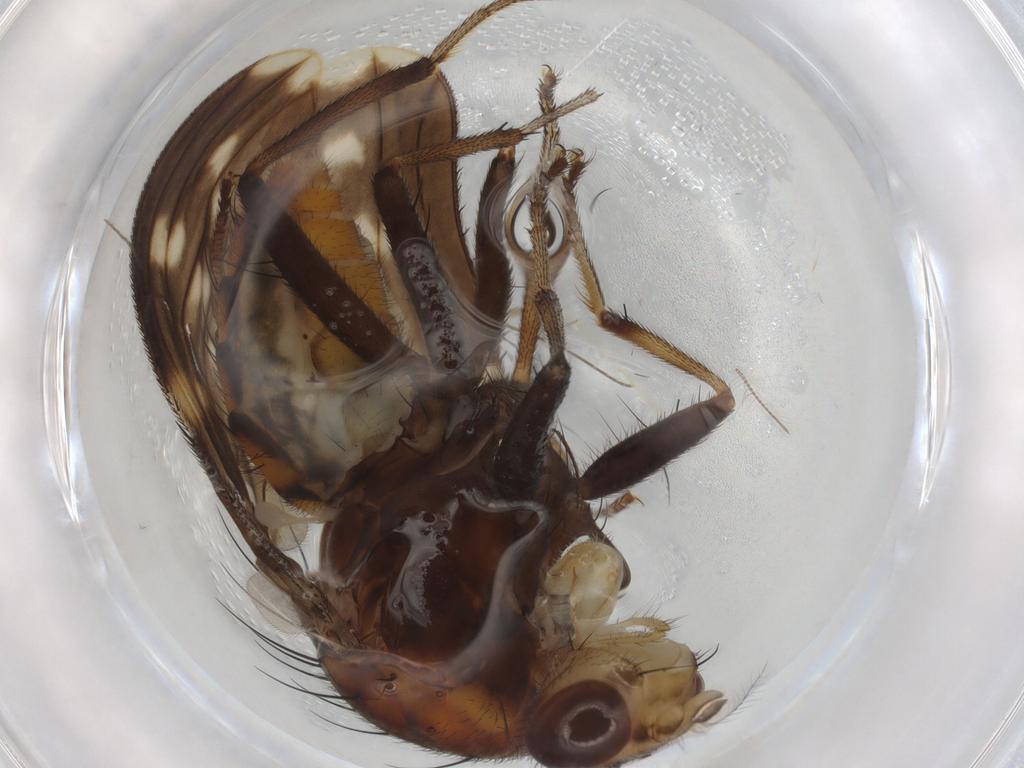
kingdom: Animalia
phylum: Arthropoda
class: Insecta
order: Diptera
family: Heleomyzidae
